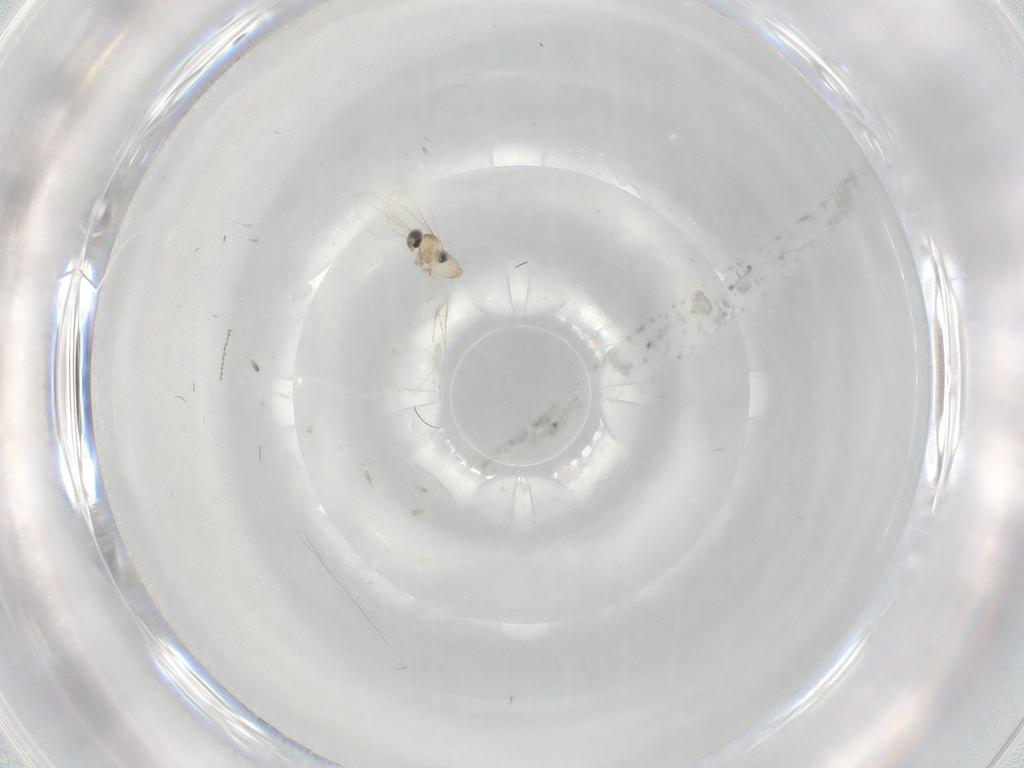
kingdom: Animalia
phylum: Arthropoda
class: Insecta
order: Diptera
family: Cecidomyiidae
